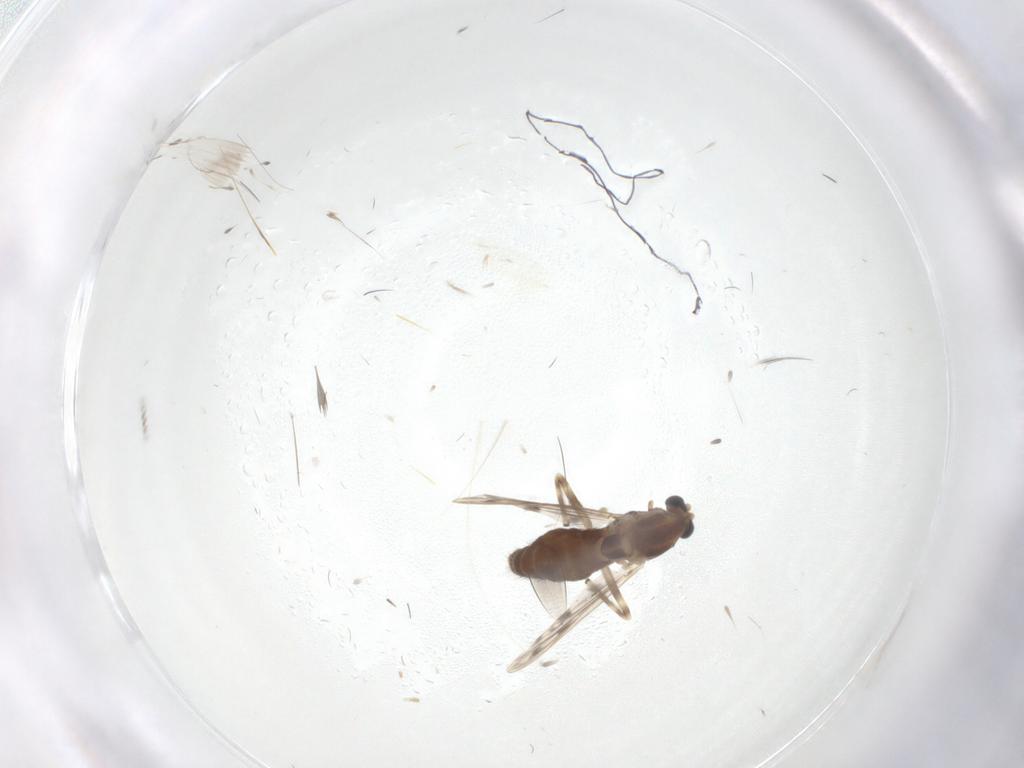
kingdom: Animalia
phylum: Arthropoda
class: Insecta
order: Diptera
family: Chironomidae
